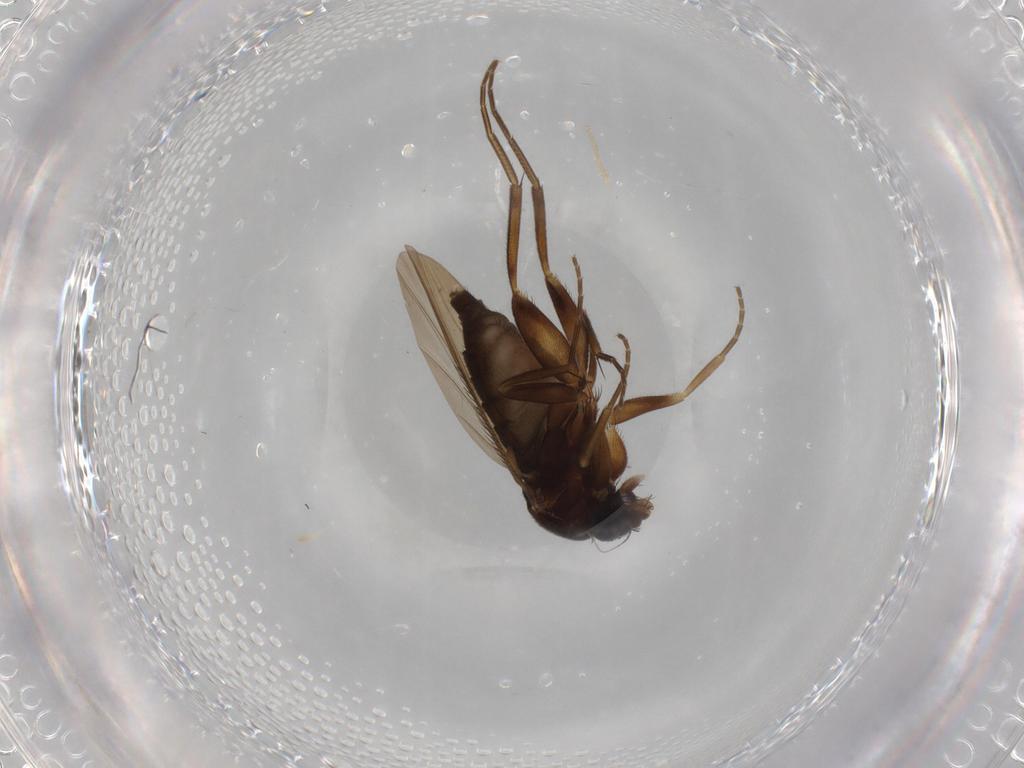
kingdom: Animalia
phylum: Arthropoda
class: Insecta
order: Diptera
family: Phoridae
